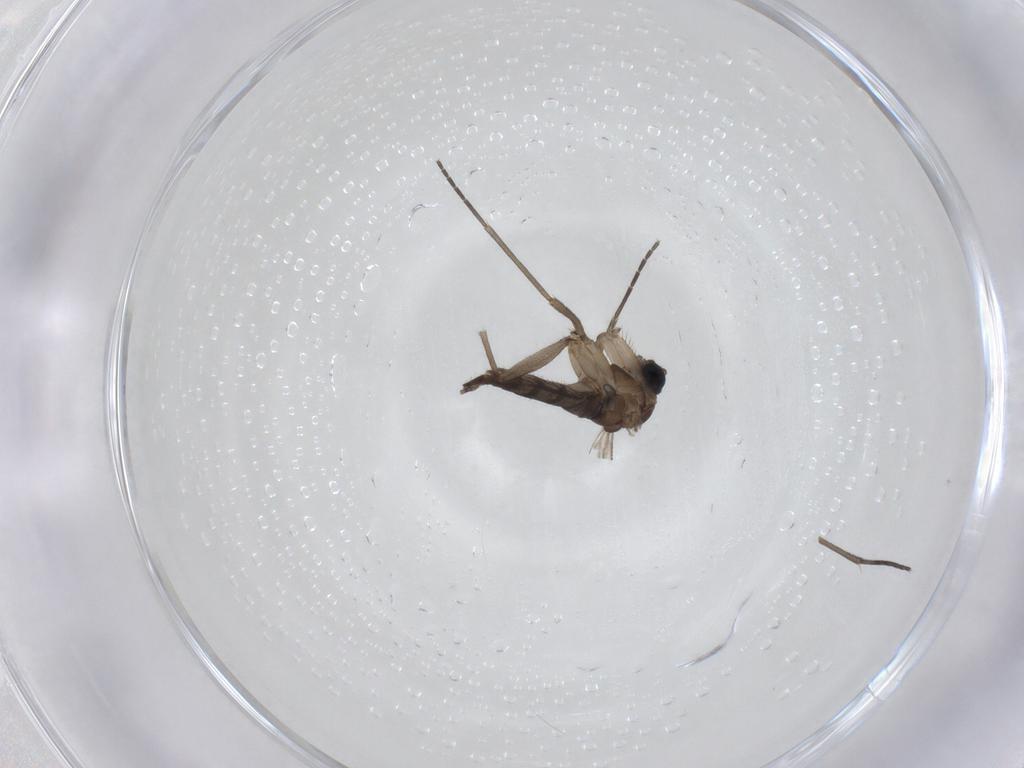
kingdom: Animalia
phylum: Arthropoda
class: Insecta
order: Diptera
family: Sciaridae
